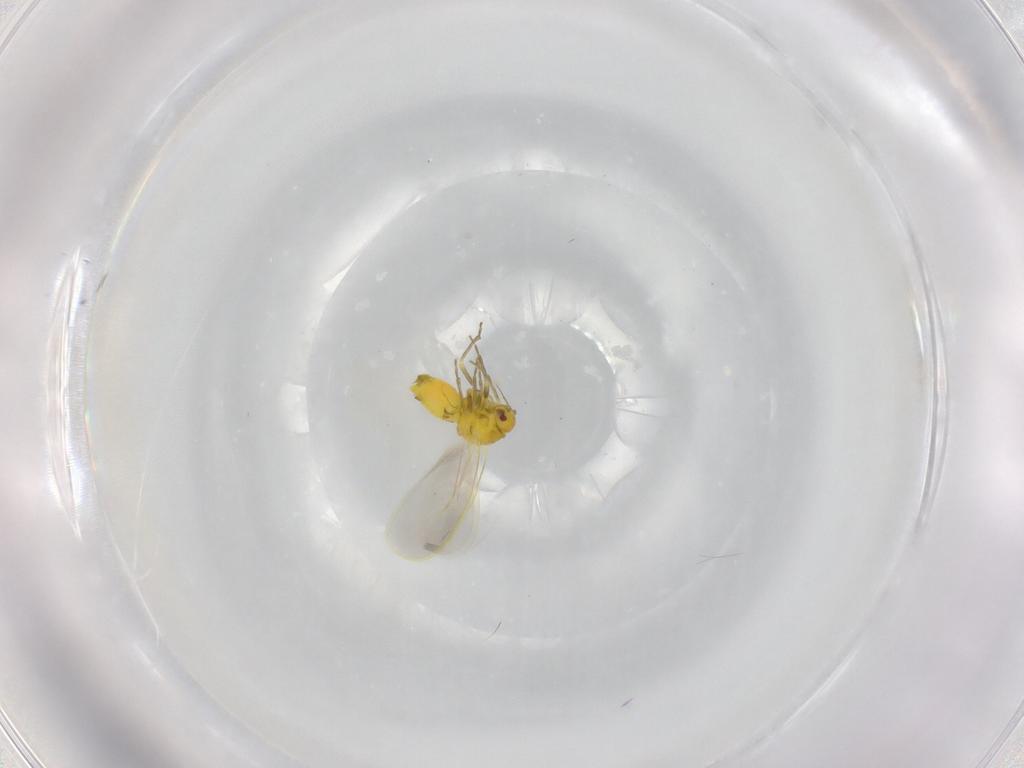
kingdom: Animalia
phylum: Arthropoda
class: Insecta
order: Hemiptera
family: Aleyrodidae
